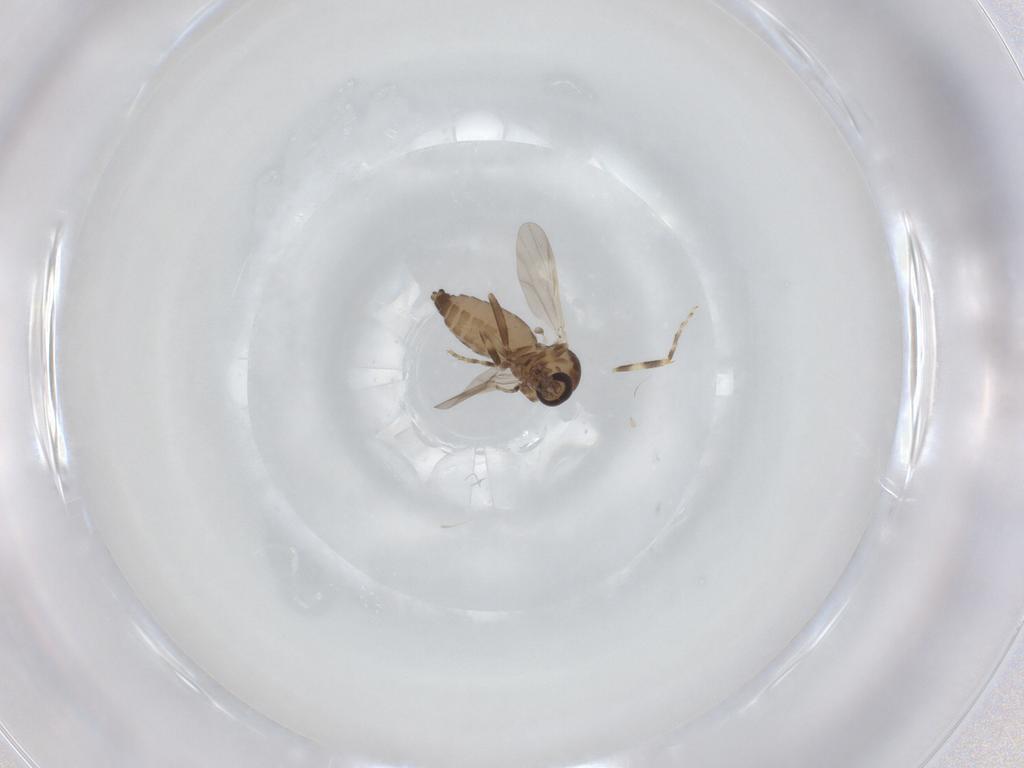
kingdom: Animalia
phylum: Arthropoda
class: Insecta
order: Diptera
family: Ceratopogonidae
